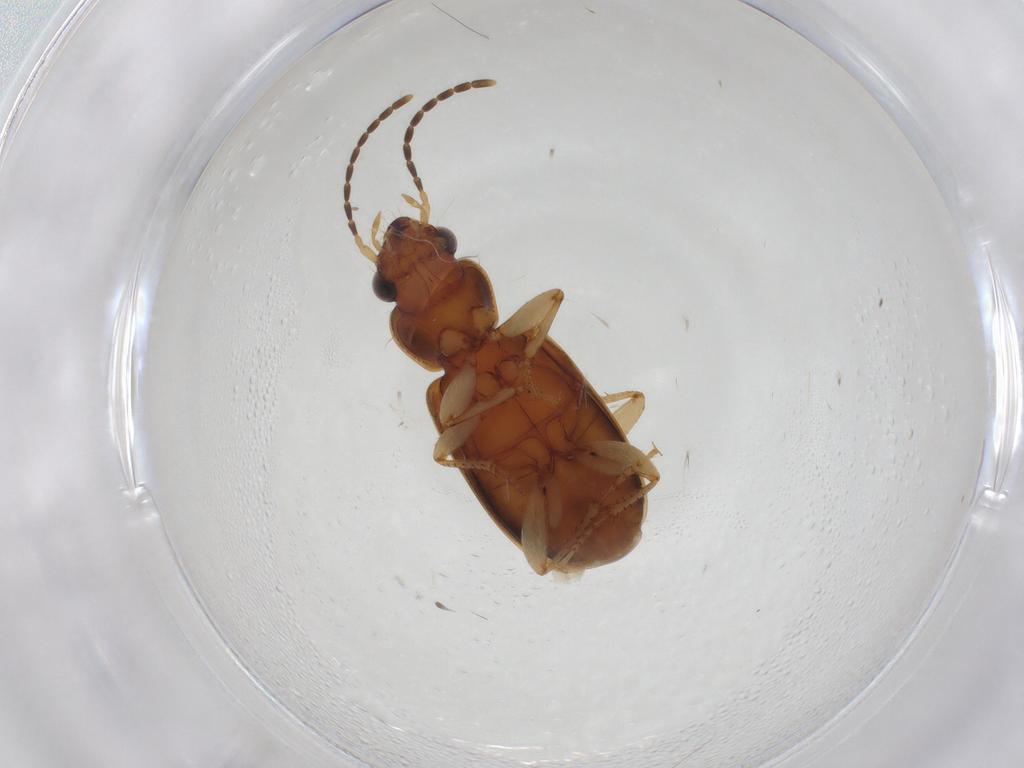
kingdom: Animalia
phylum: Arthropoda
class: Insecta
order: Coleoptera
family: Carabidae
